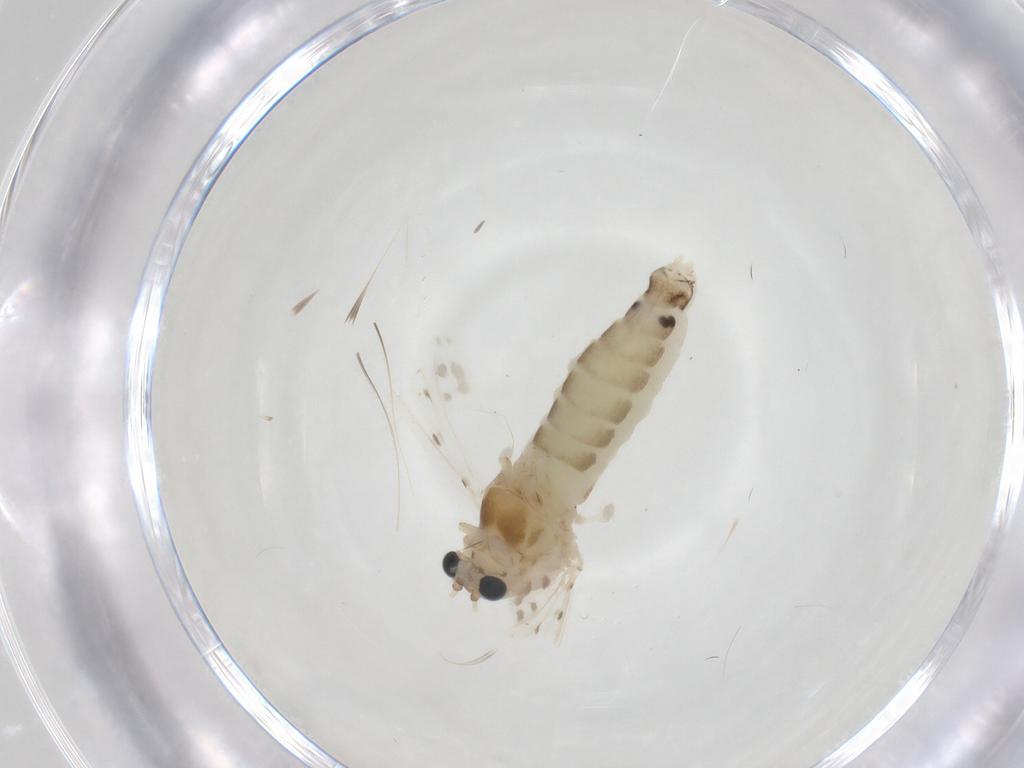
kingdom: Animalia
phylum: Arthropoda
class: Insecta
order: Diptera
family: Chironomidae
